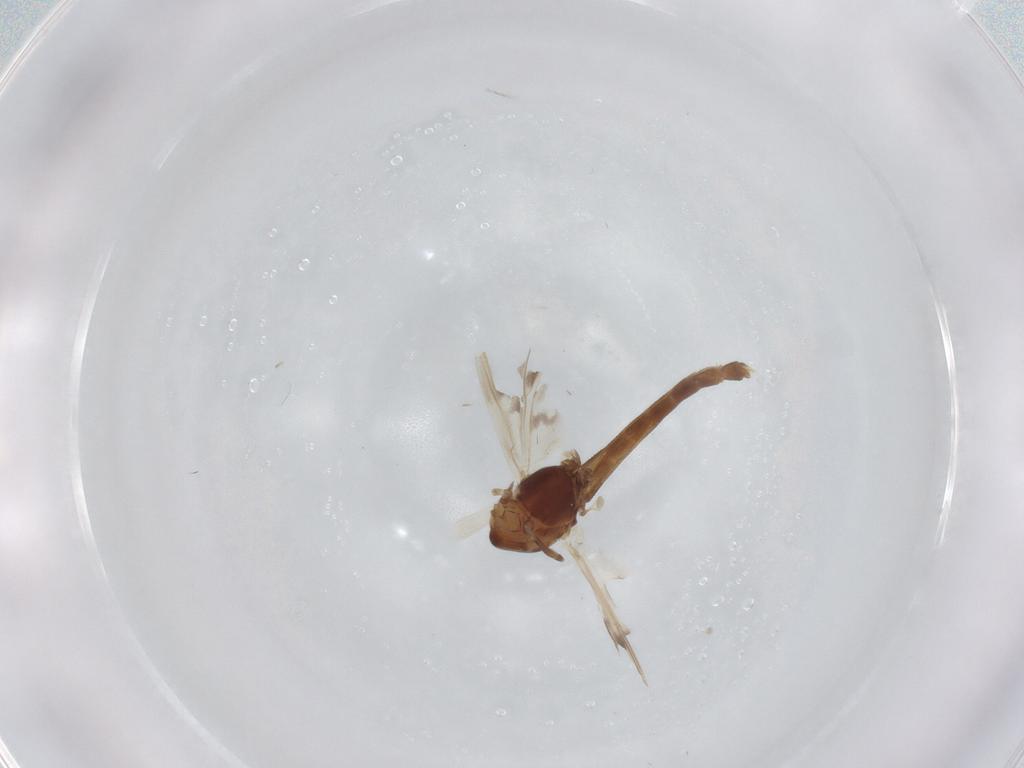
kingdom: Animalia
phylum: Arthropoda
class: Insecta
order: Diptera
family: Chironomidae
